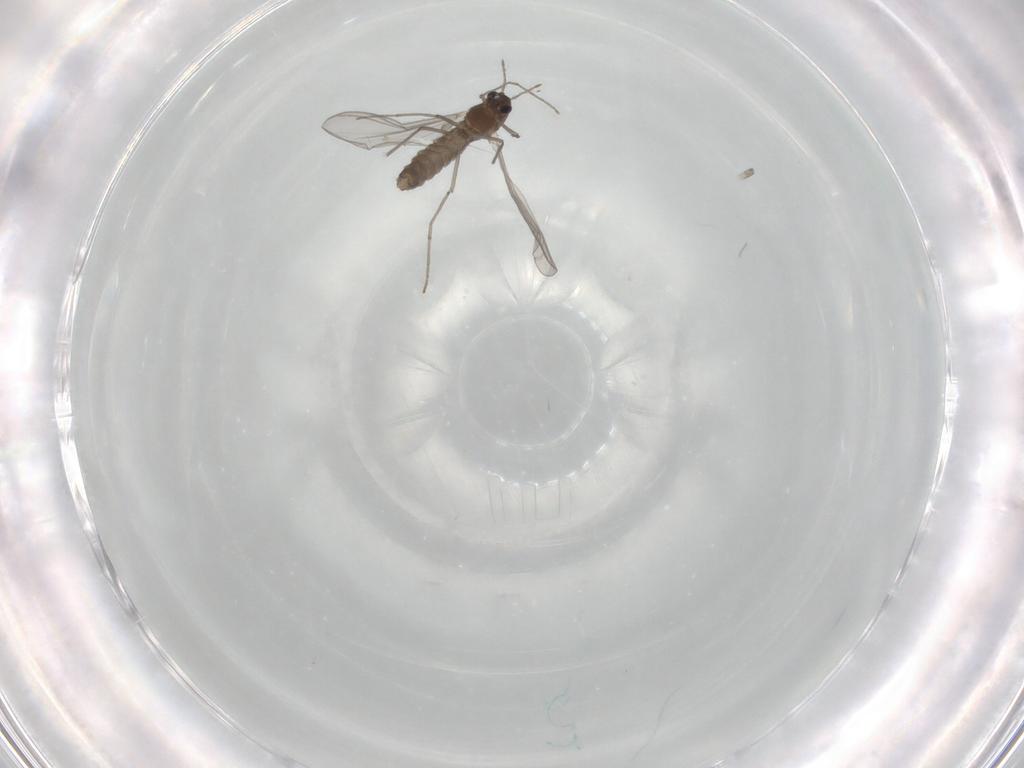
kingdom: Animalia
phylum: Arthropoda
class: Insecta
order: Diptera
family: Chironomidae
